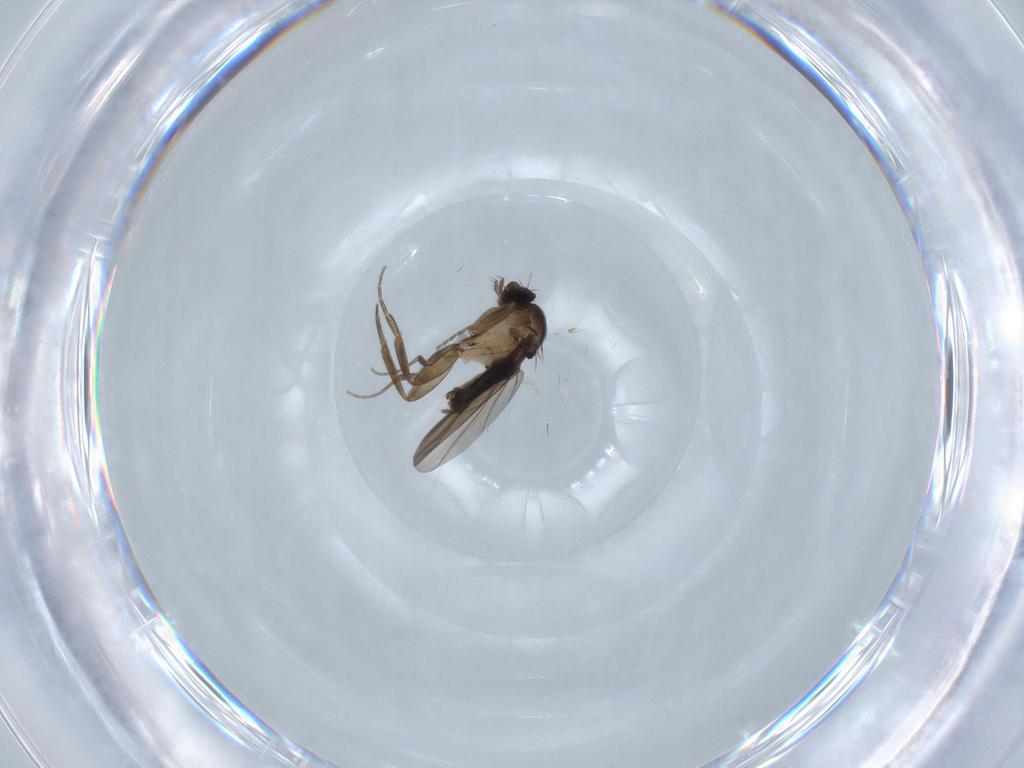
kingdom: Animalia
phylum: Arthropoda
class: Insecta
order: Diptera
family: Phoridae
